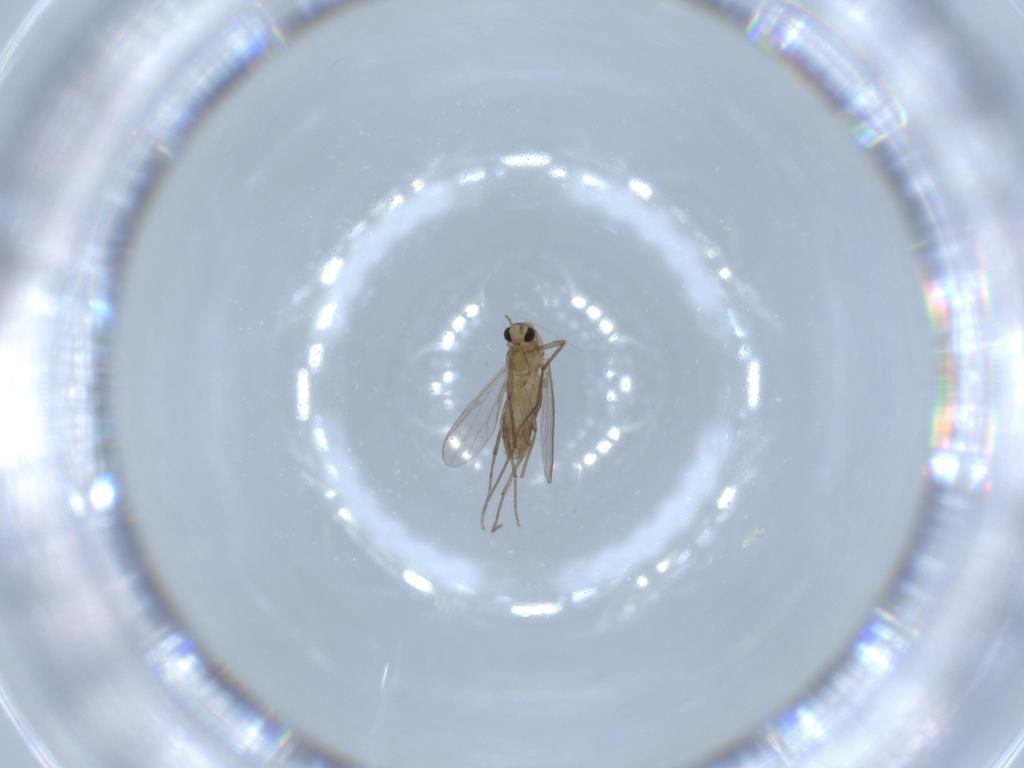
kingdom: Animalia
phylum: Arthropoda
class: Insecta
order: Diptera
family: Chironomidae
